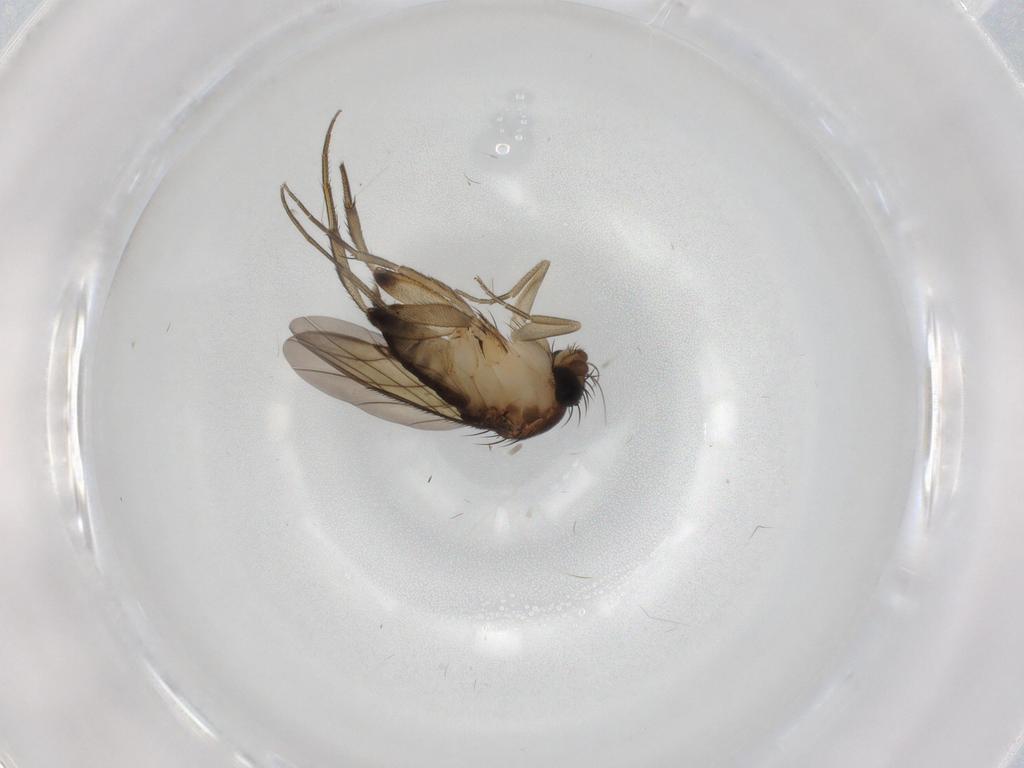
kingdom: Animalia
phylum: Arthropoda
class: Insecta
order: Diptera
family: Phoridae
